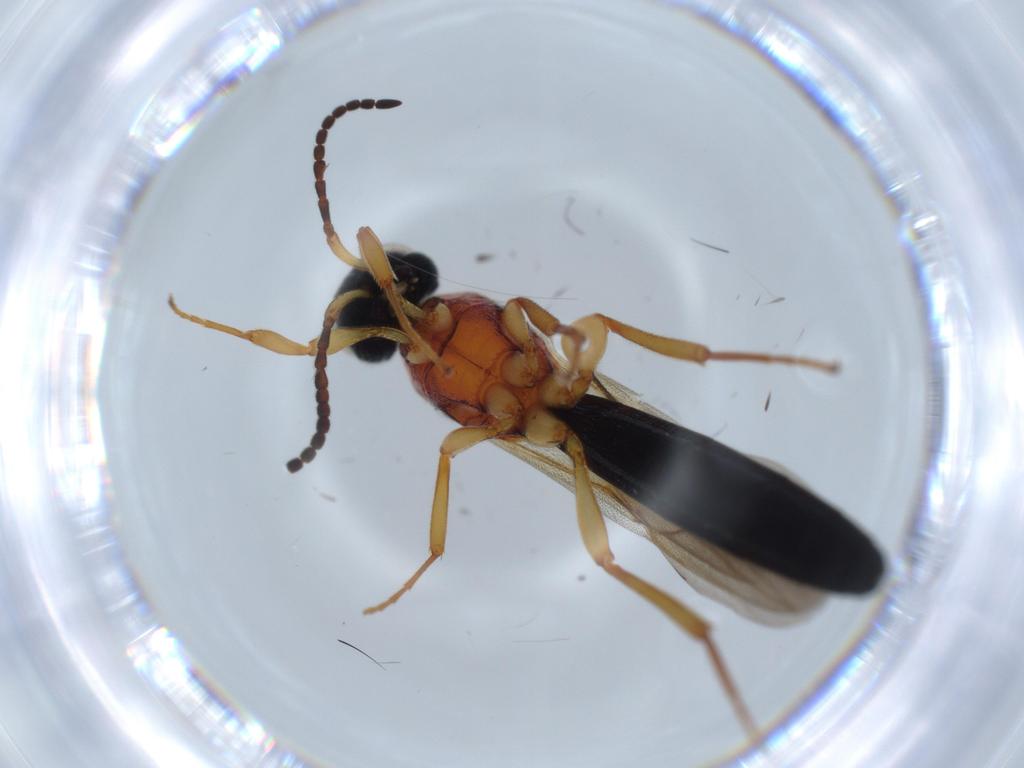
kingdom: Animalia
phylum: Arthropoda
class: Insecta
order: Hymenoptera
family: Scelionidae
